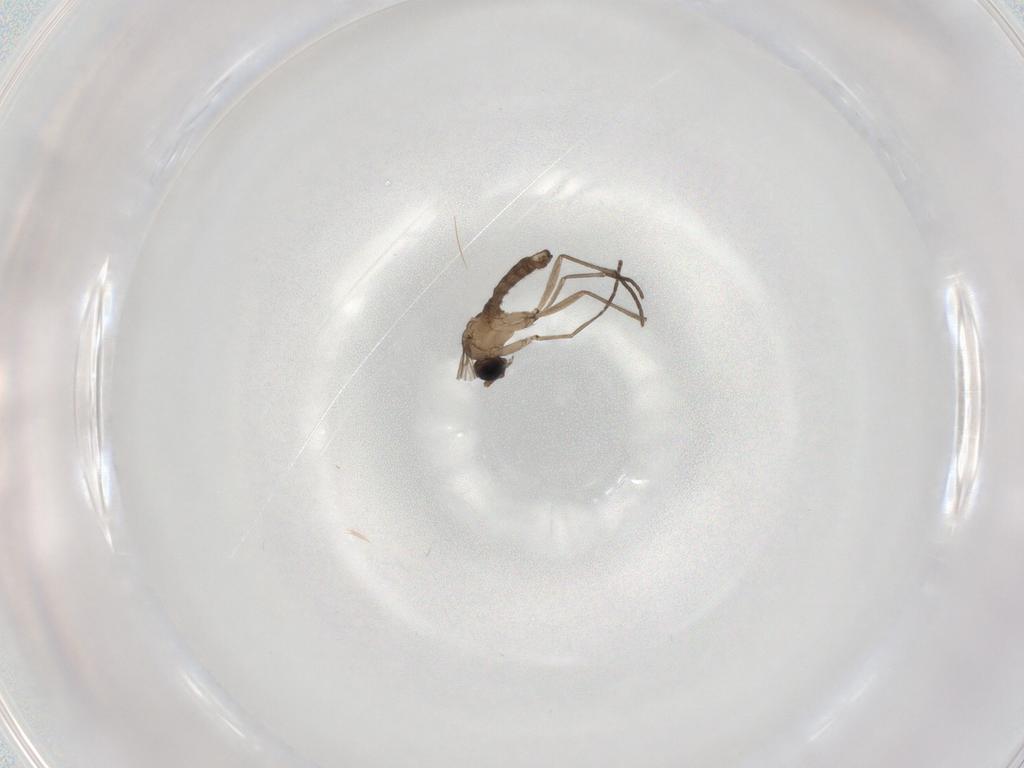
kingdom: Animalia
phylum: Arthropoda
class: Insecta
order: Diptera
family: Sciaridae
